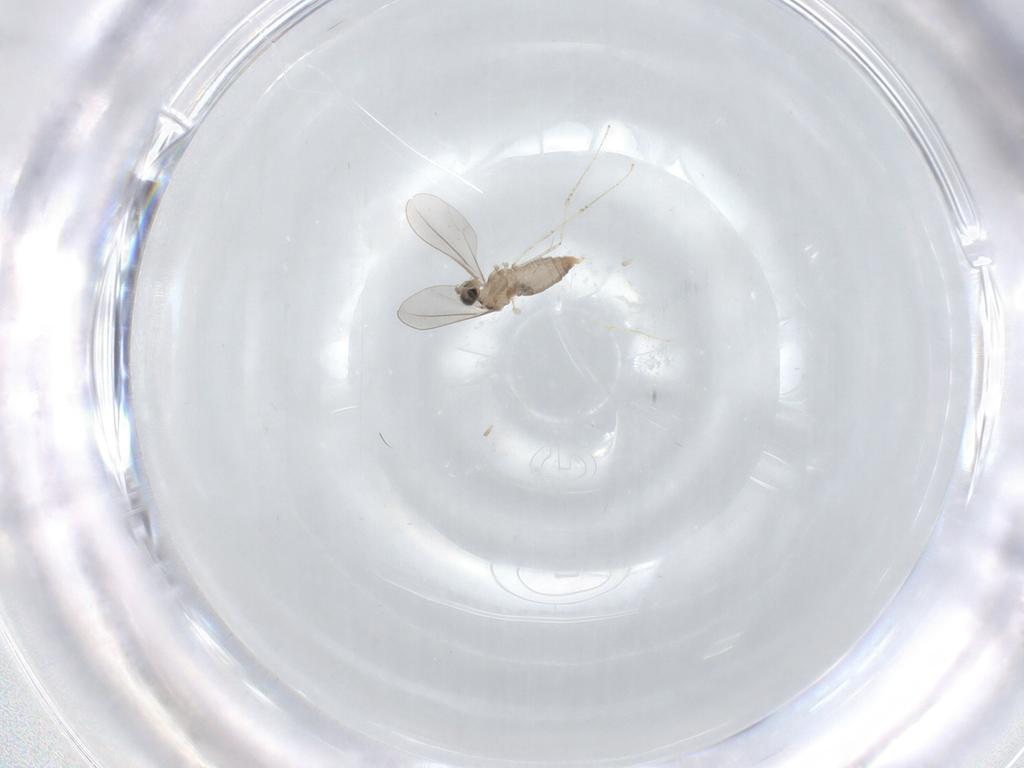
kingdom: Animalia
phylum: Arthropoda
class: Insecta
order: Diptera
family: Cecidomyiidae
